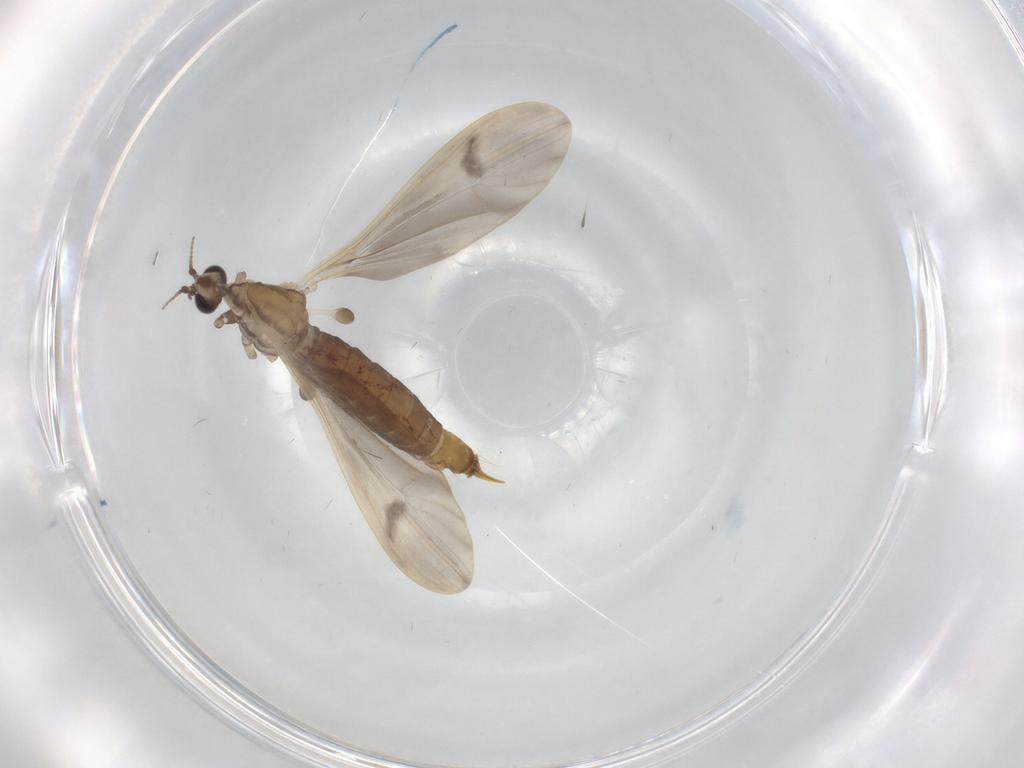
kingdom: Animalia
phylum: Arthropoda
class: Insecta
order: Diptera
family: Limoniidae
